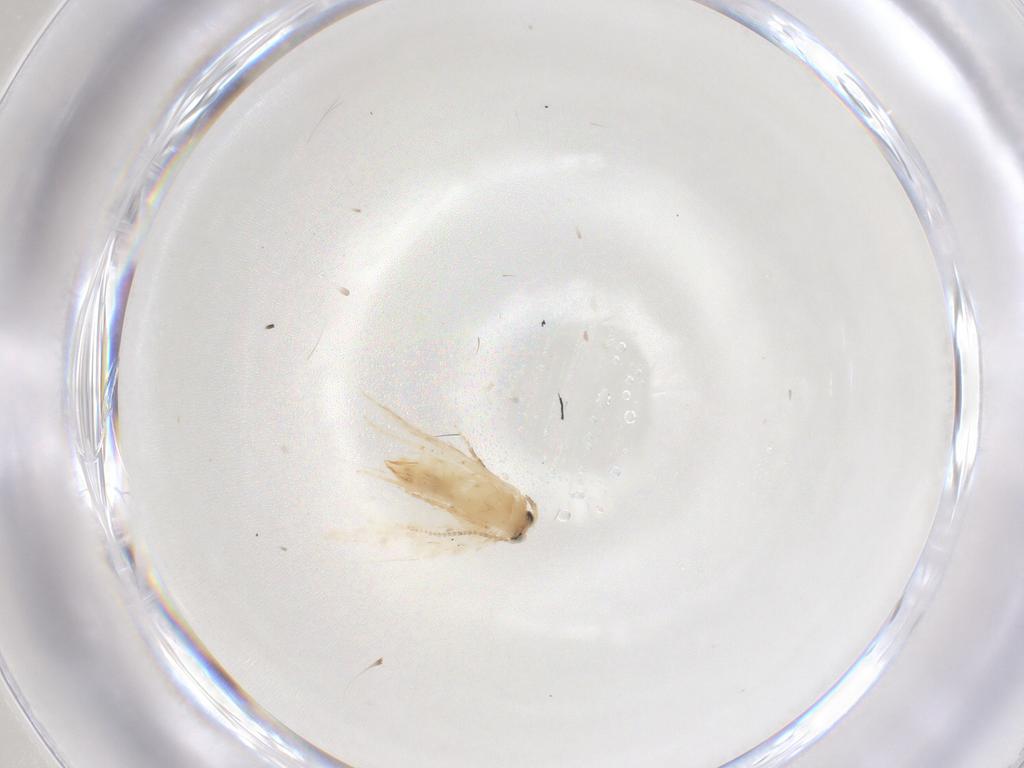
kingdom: Animalia
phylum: Arthropoda
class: Insecta
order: Lepidoptera
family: Nepticulidae
